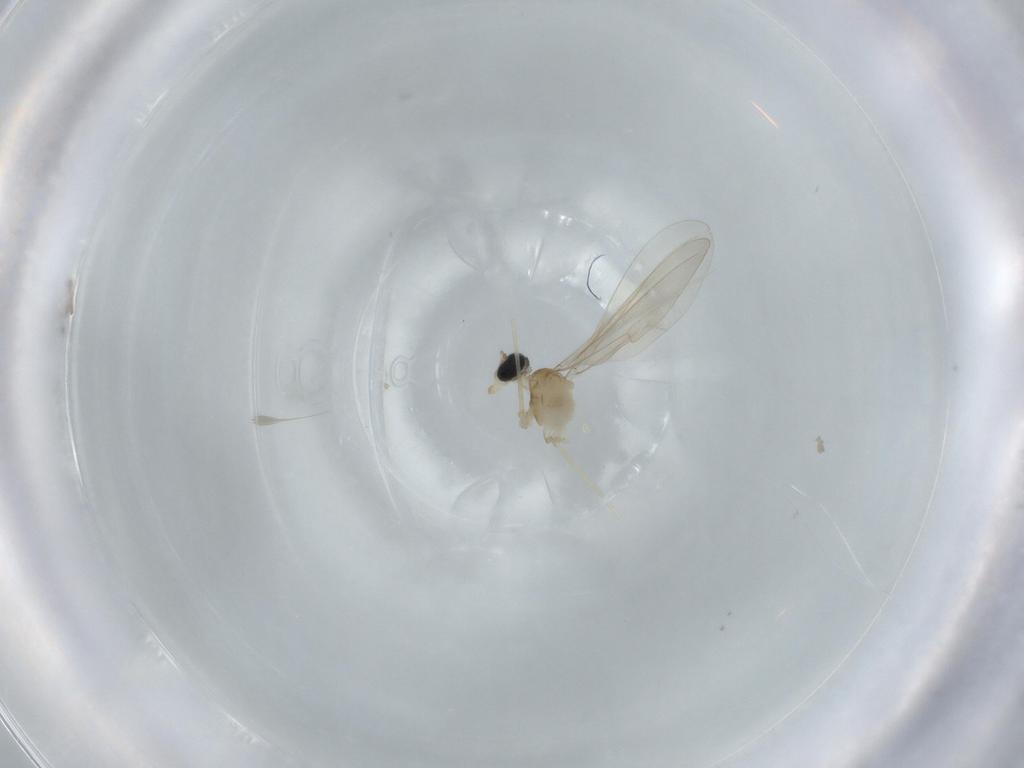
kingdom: Animalia
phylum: Arthropoda
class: Insecta
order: Diptera
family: Cecidomyiidae
